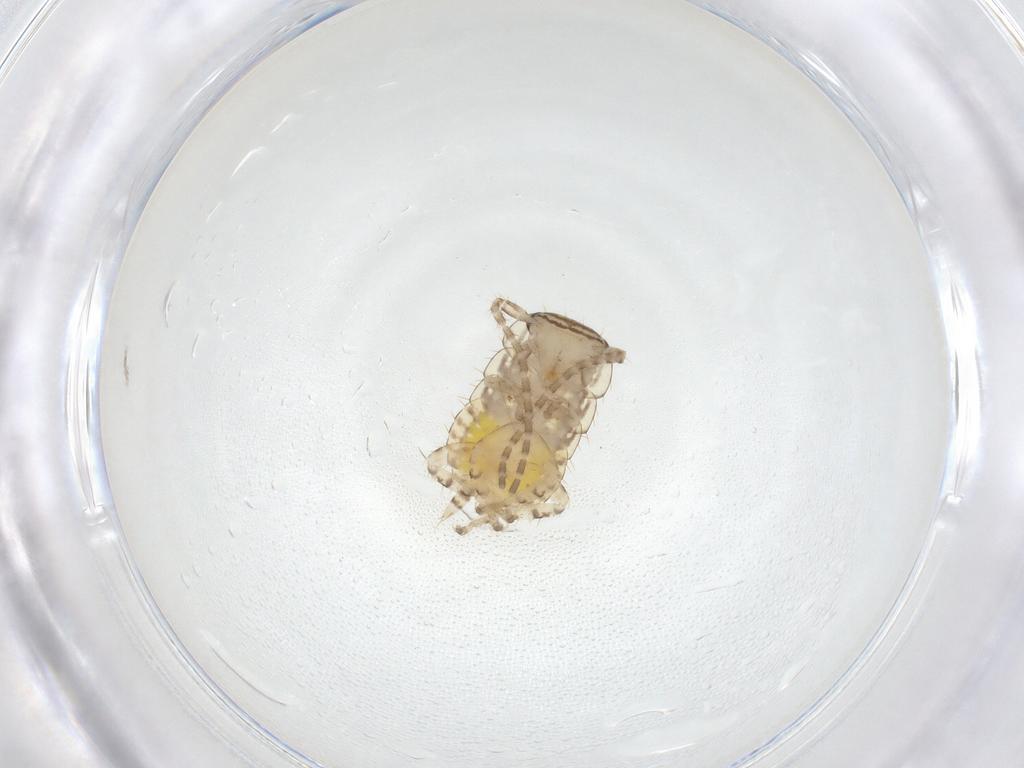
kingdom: Animalia
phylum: Arthropoda
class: Insecta
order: Blattodea
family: Ectobiidae
